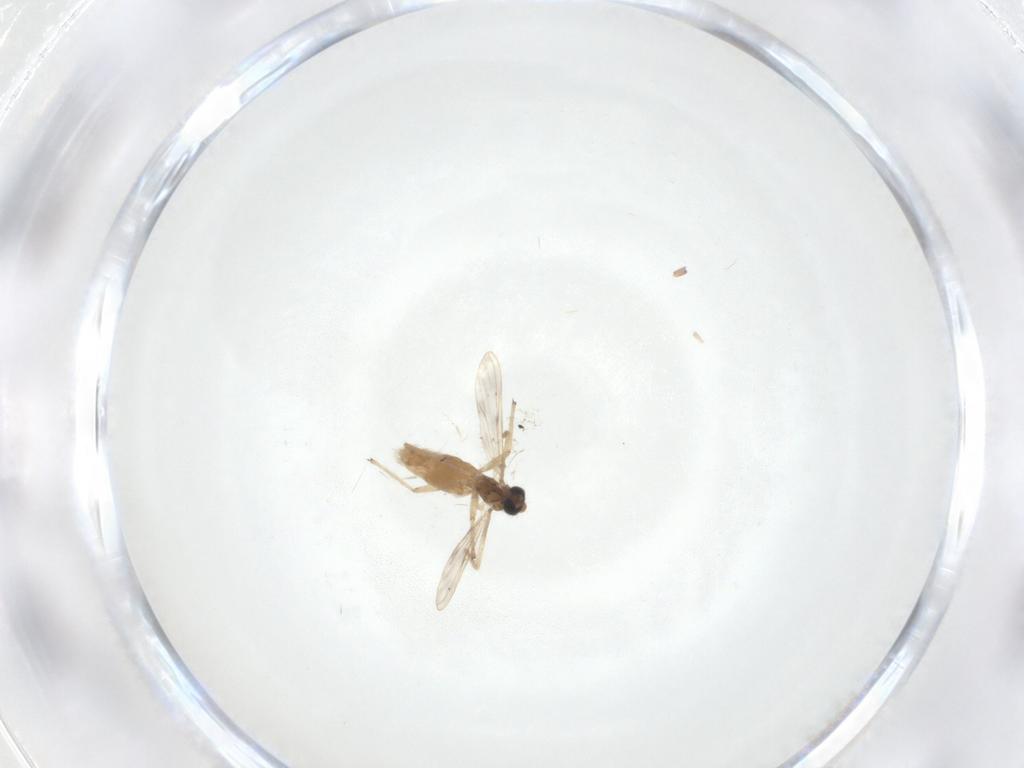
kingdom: Animalia
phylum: Arthropoda
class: Insecta
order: Diptera
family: Chironomidae
